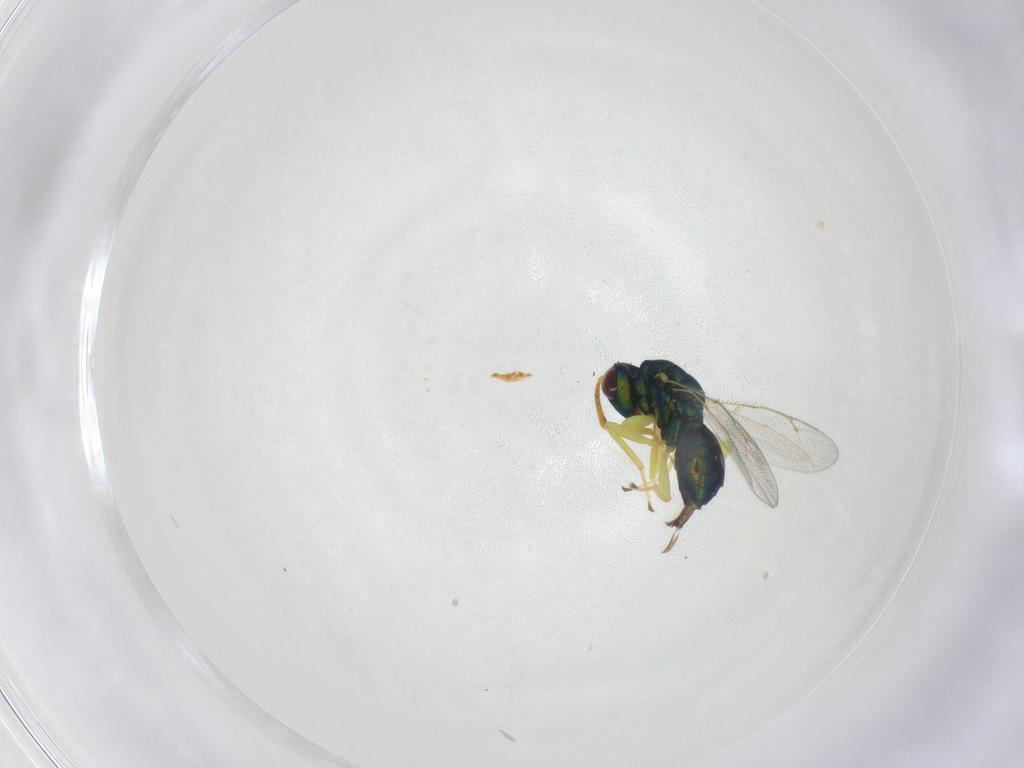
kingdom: Animalia
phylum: Arthropoda
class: Insecta
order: Hymenoptera
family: Pteromalidae
